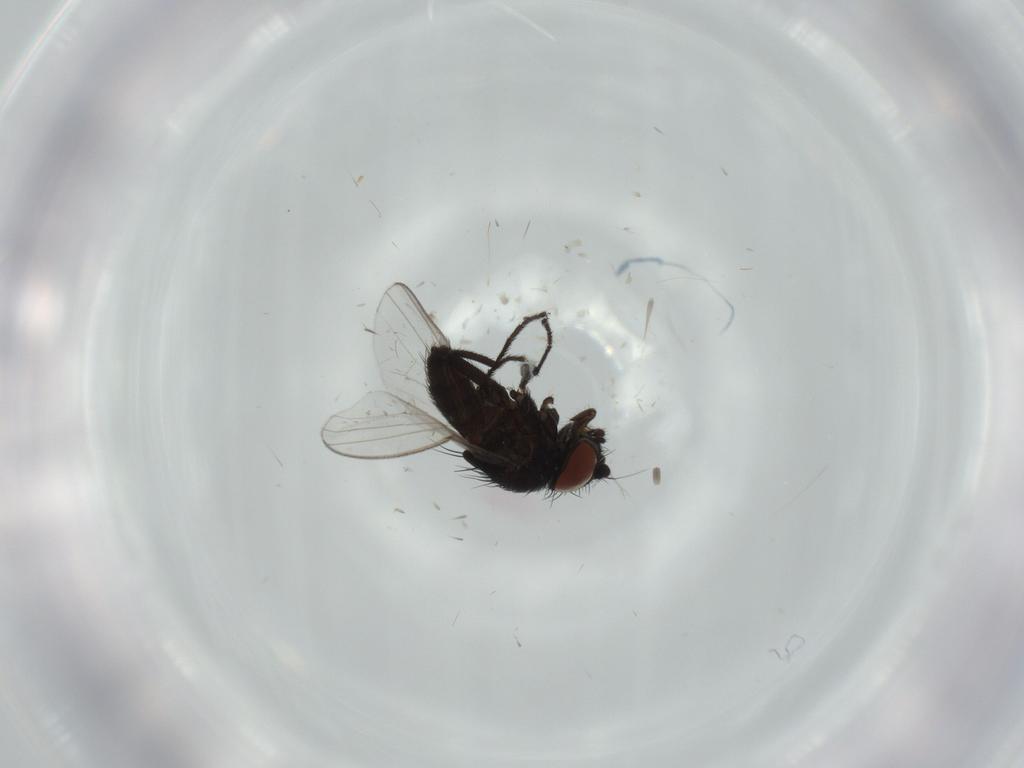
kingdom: Animalia
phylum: Arthropoda
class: Insecta
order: Diptera
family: Milichiidae
